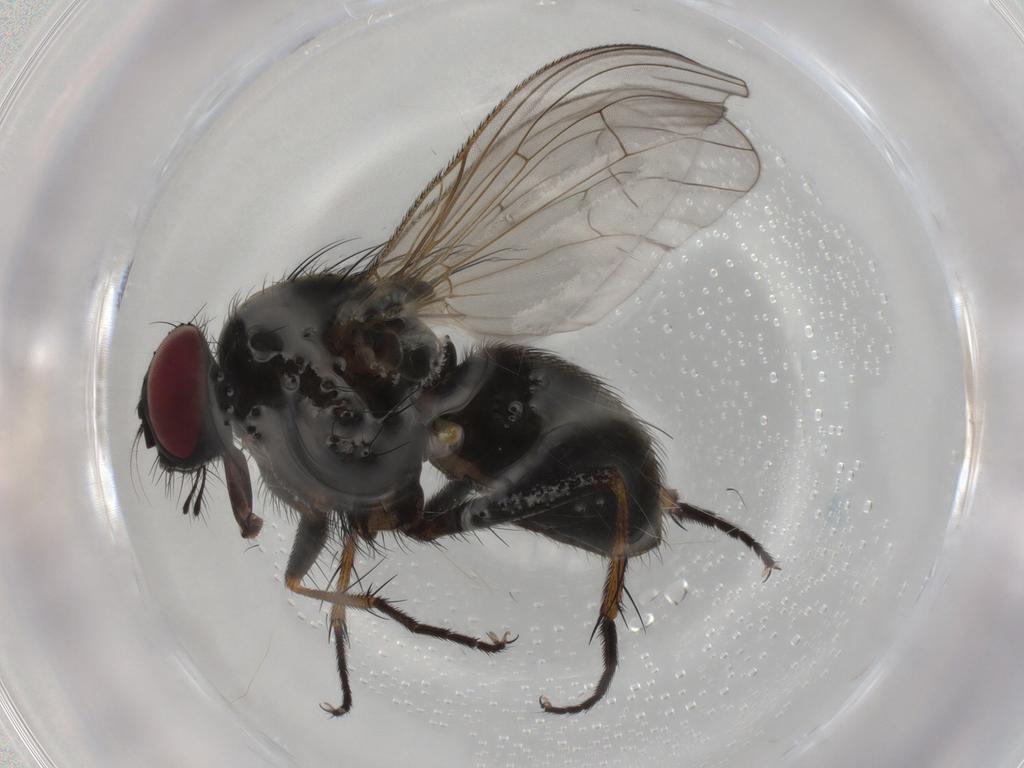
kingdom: Animalia
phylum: Arthropoda
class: Insecta
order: Diptera
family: Muscidae
